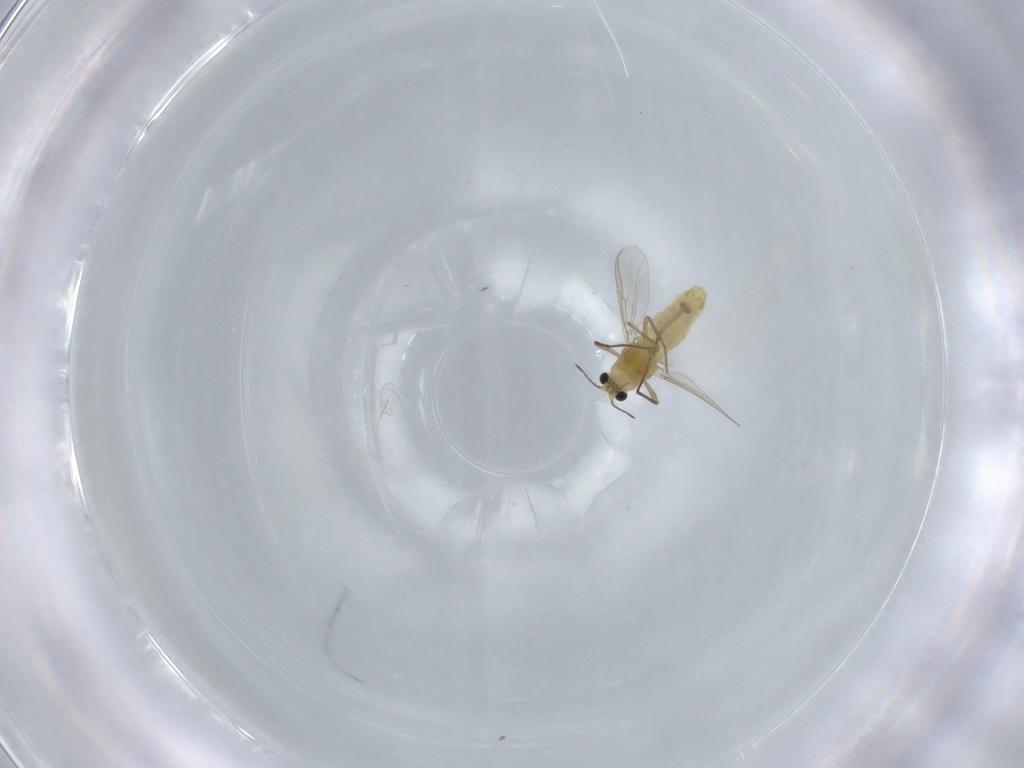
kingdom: Animalia
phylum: Arthropoda
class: Insecta
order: Diptera
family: Chironomidae
